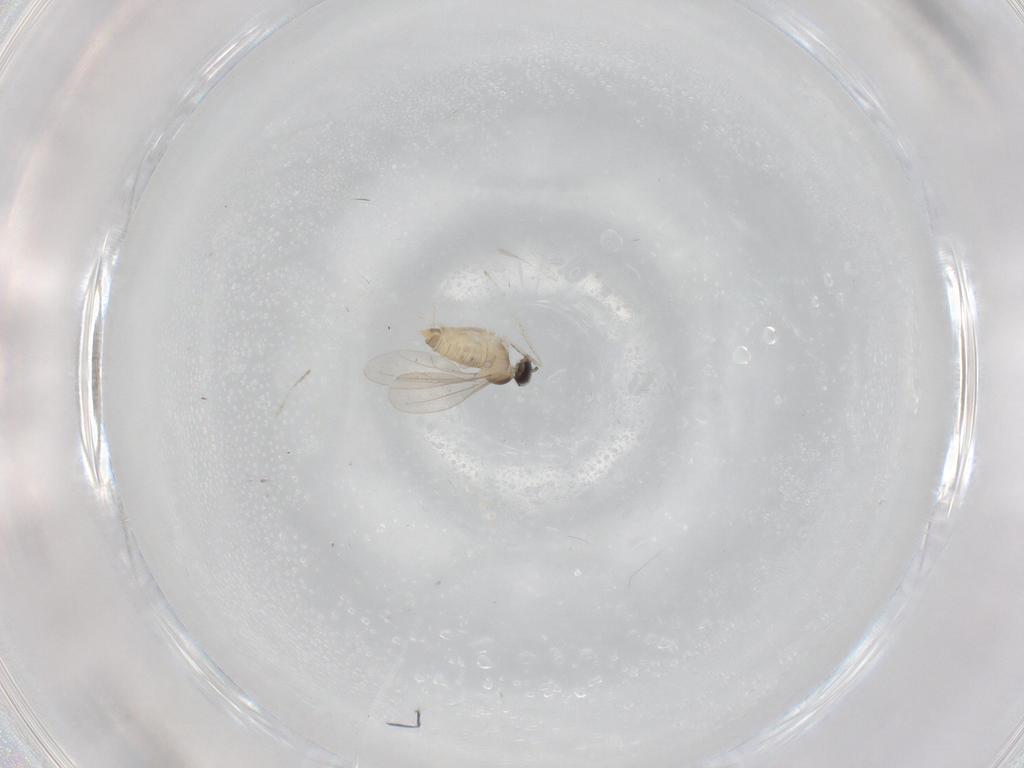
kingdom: Animalia
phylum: Arthropoda
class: Insecta
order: Diptera
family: Cecidomyiidae
